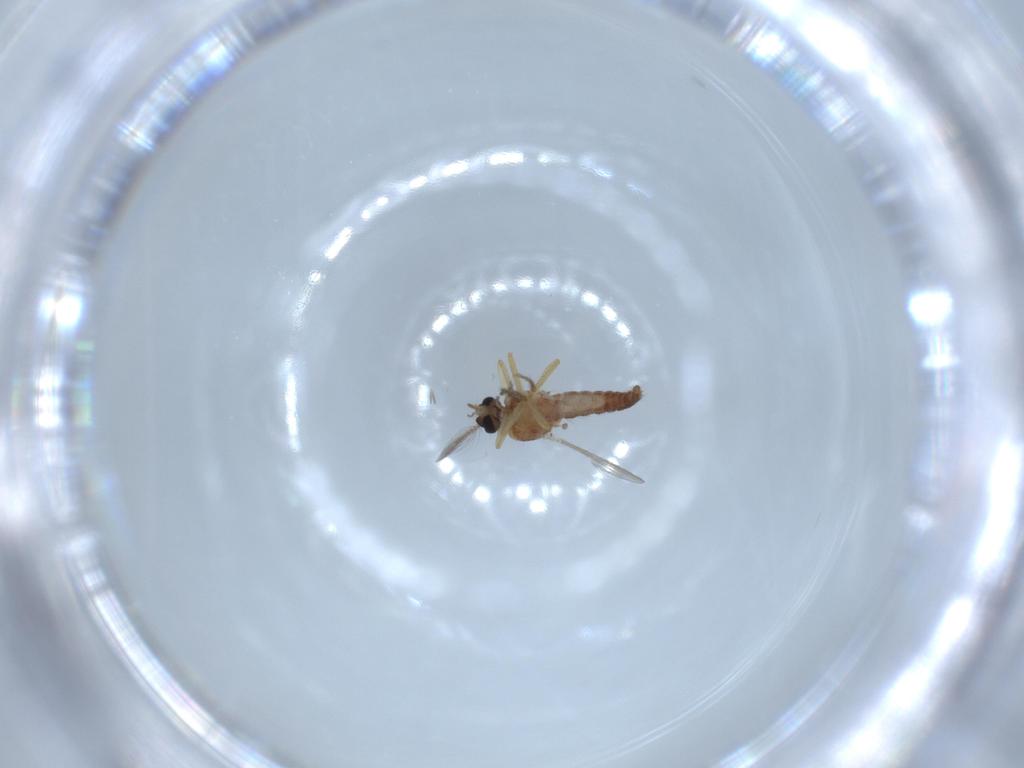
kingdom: Animalia
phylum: Arthropoda
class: Insecta
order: Diptera
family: Ceratopogonidae
